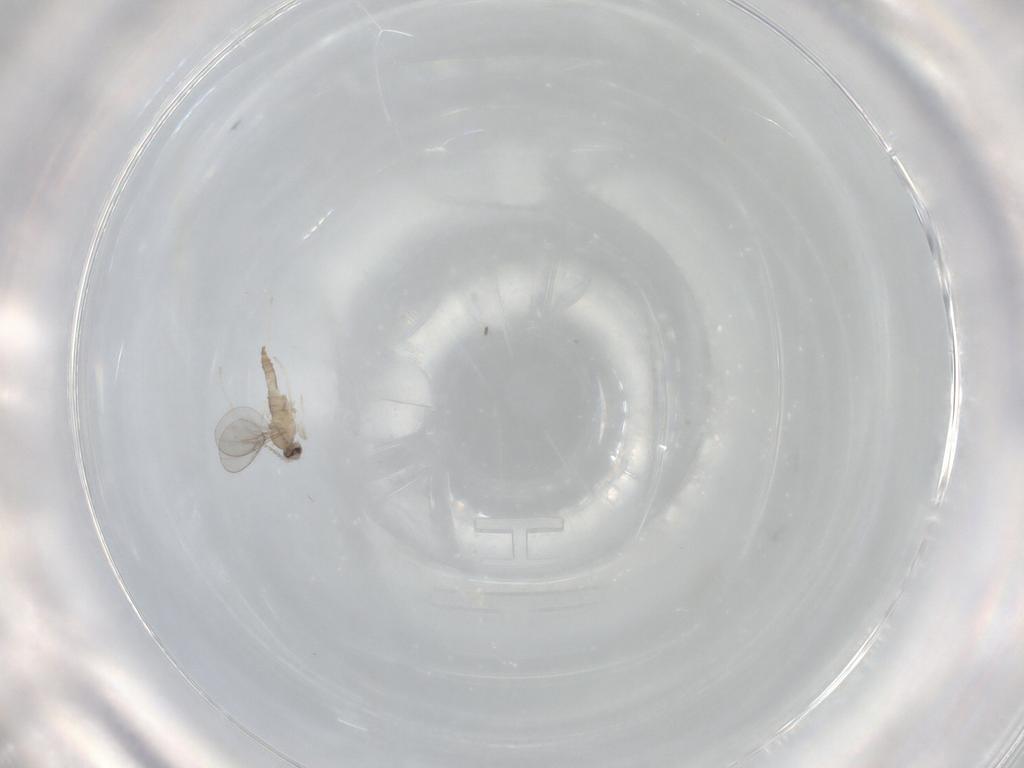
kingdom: Animalia
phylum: Arthropoda
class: Insecta
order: Diptera
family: Cecidomyiidae
